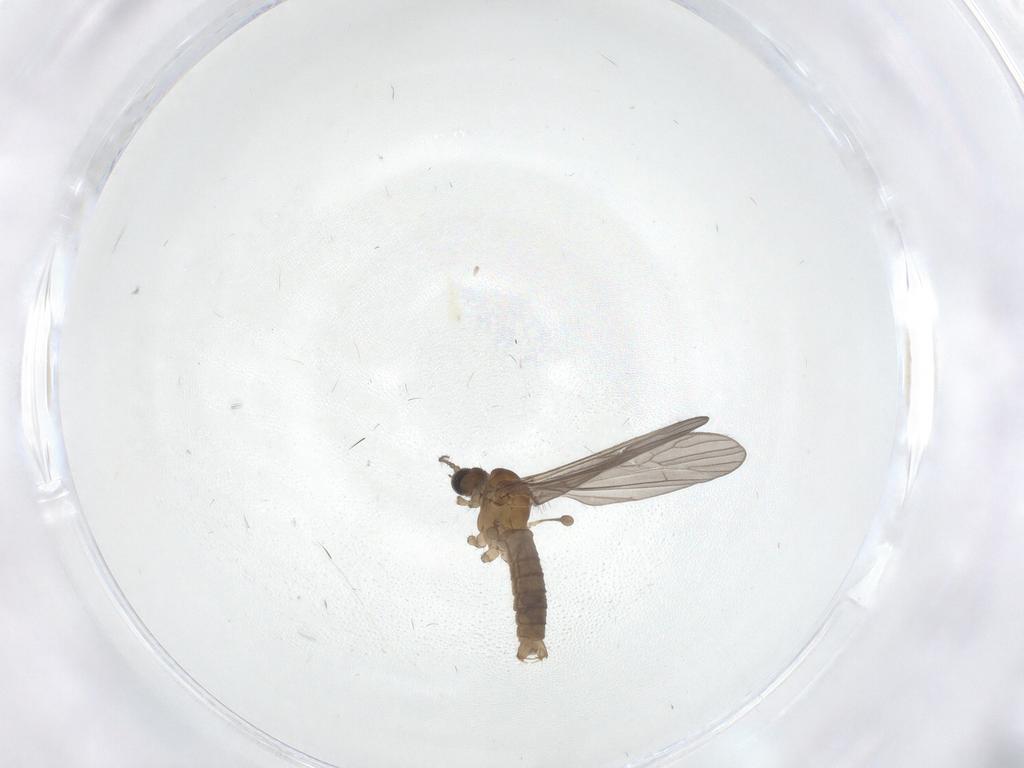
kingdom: Animalia
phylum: Arthropoda
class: Insecta
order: Diptera
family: Limoniidae
